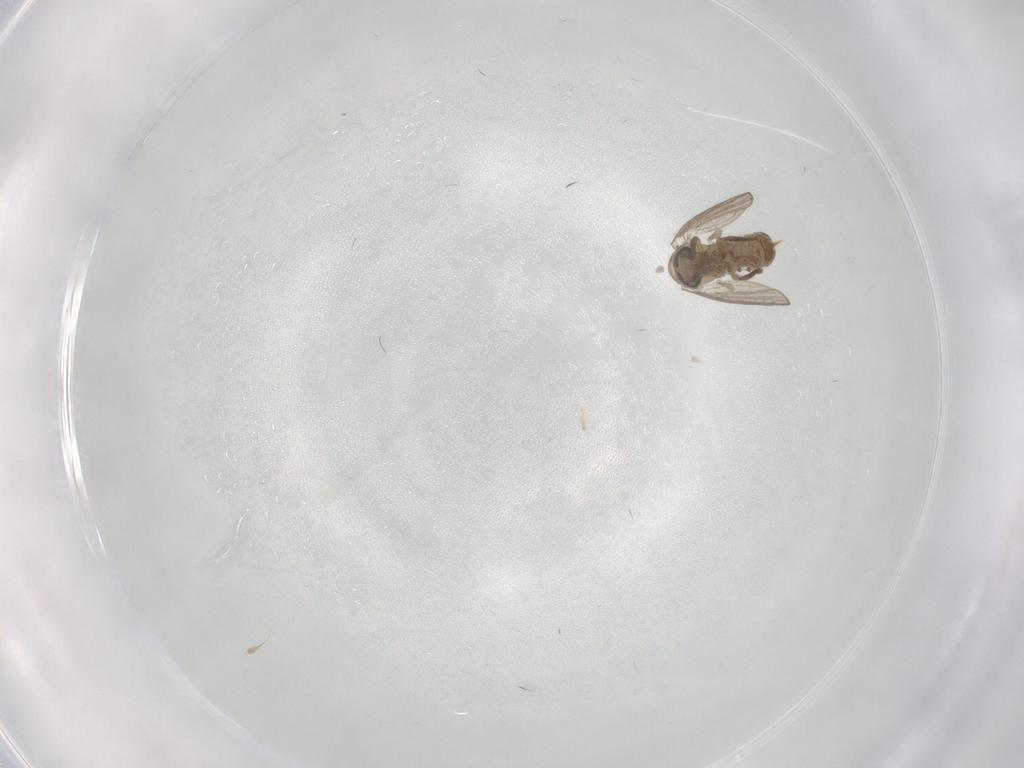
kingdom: Animalia
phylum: Arthropoda
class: Insecta
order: Diptera
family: Psychodidae
